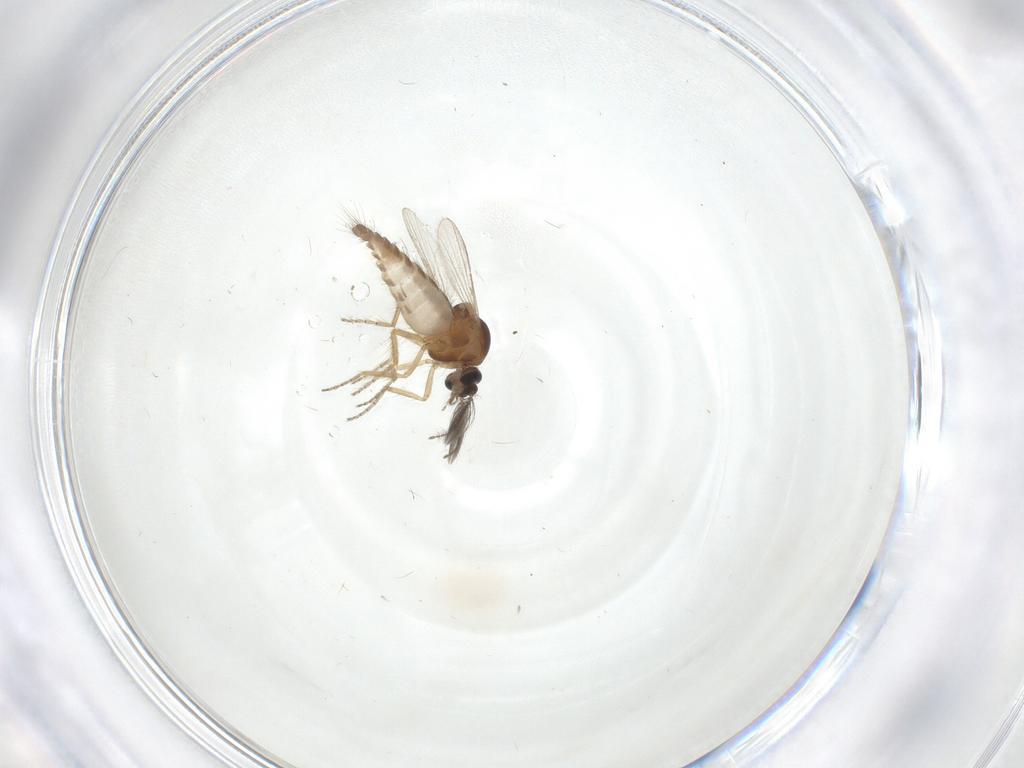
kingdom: Animalia
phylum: Arthropoda
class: Insecta
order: Diptera
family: Ceratopogonidae
